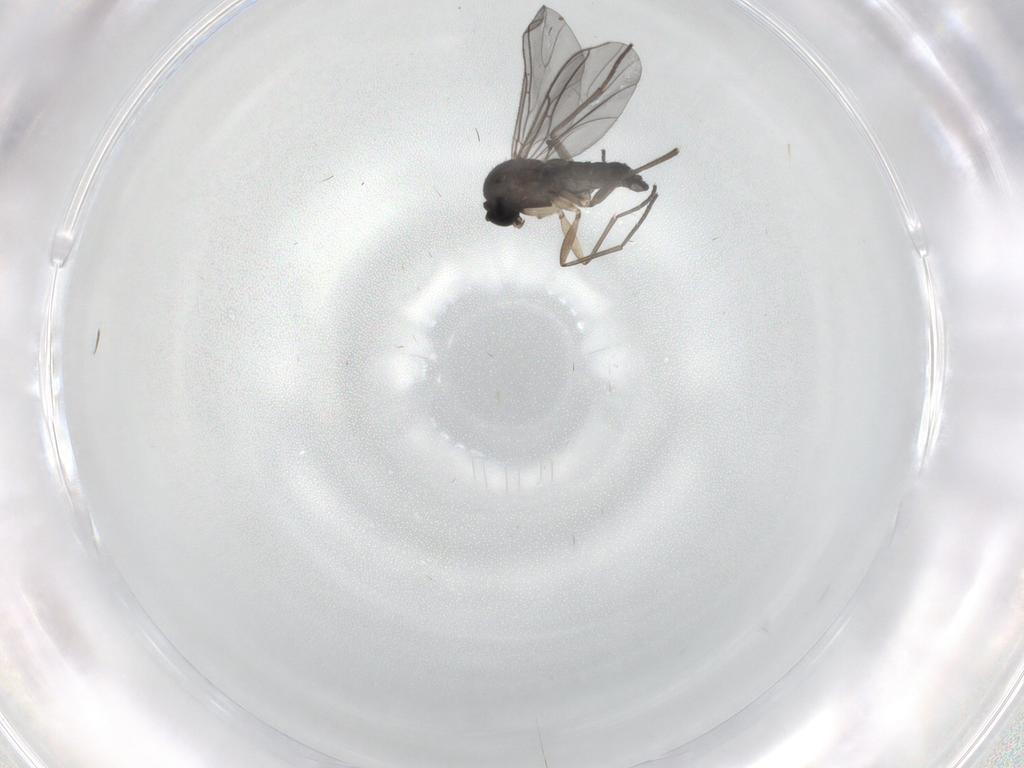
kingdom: Animalia
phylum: Arthropoda
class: Insecta
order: Diptera
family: Sciaridae
